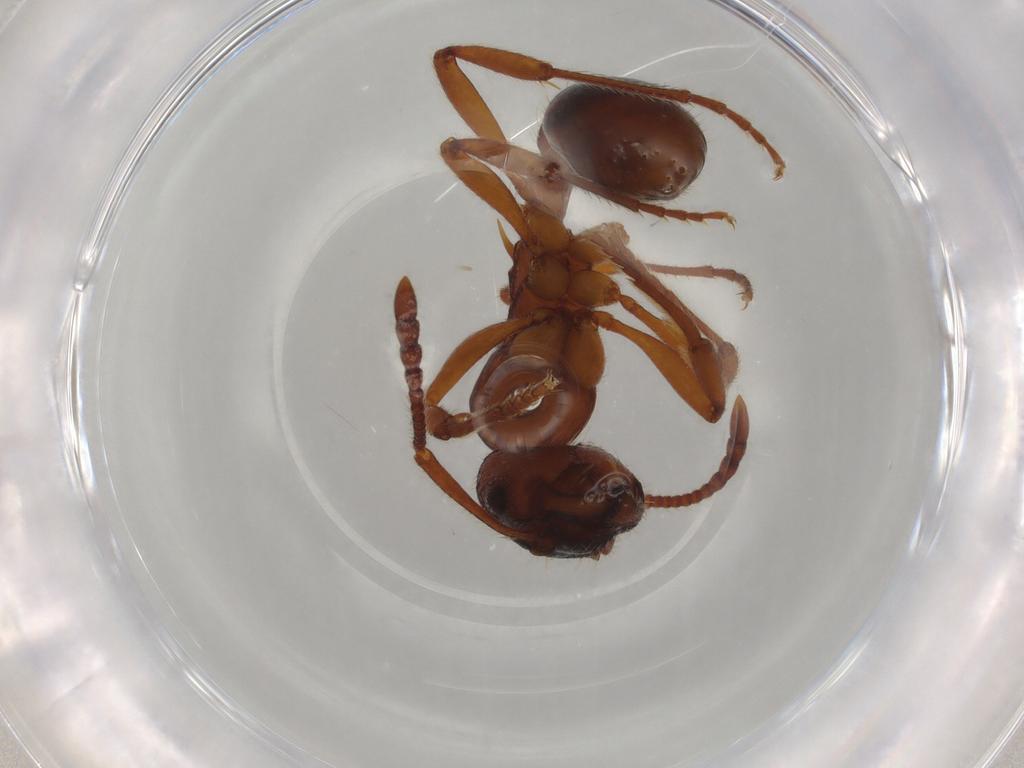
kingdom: Animalia
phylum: Arthropoda
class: Insecta
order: Hymenoptera
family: Formicidae
